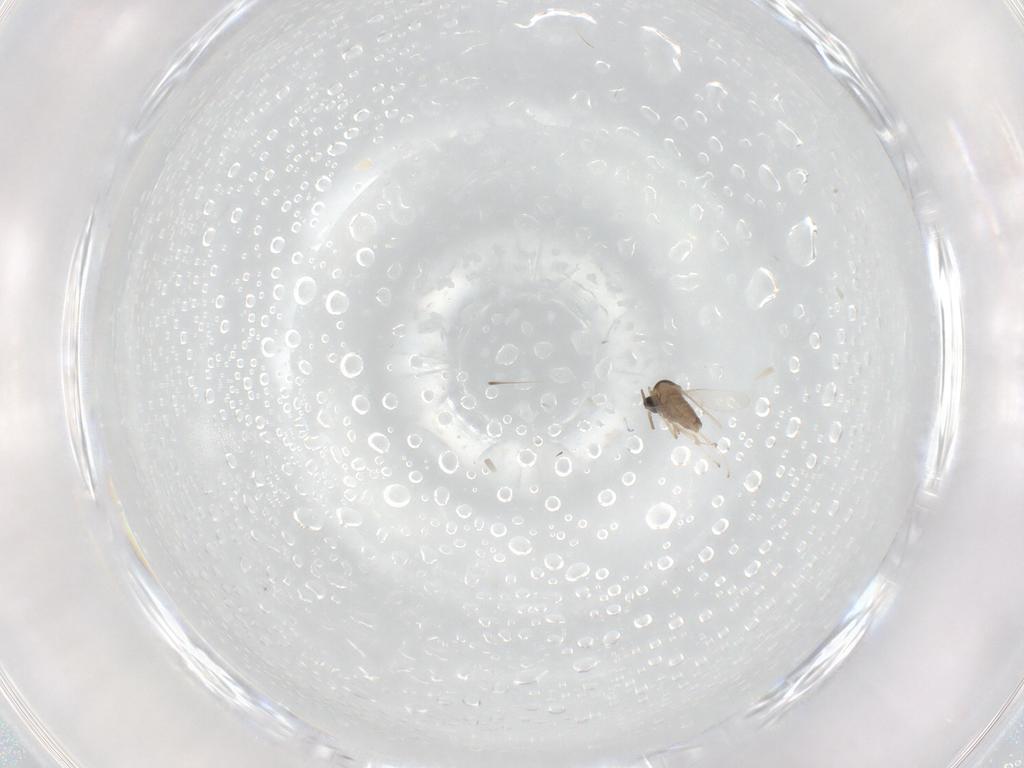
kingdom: Animalia
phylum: Arthropoda
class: Insecta
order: Diptera
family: Cecidomyiidae
